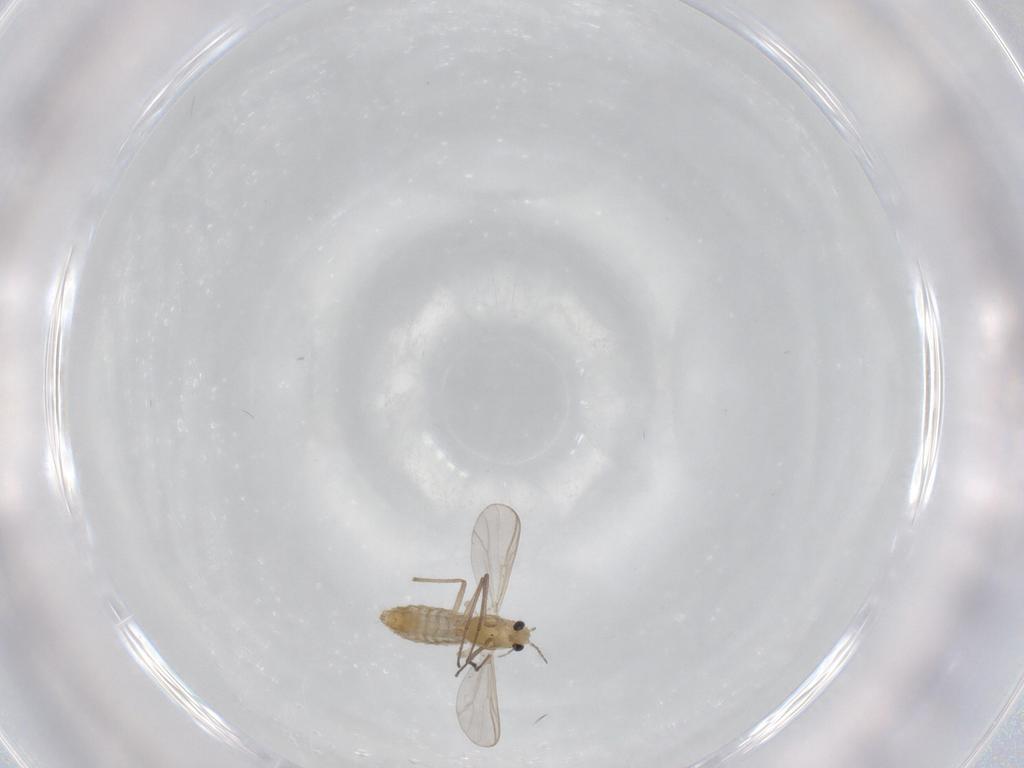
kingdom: Animalia
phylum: Arthropoda
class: Insecta
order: Diptera
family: Chironomidae
